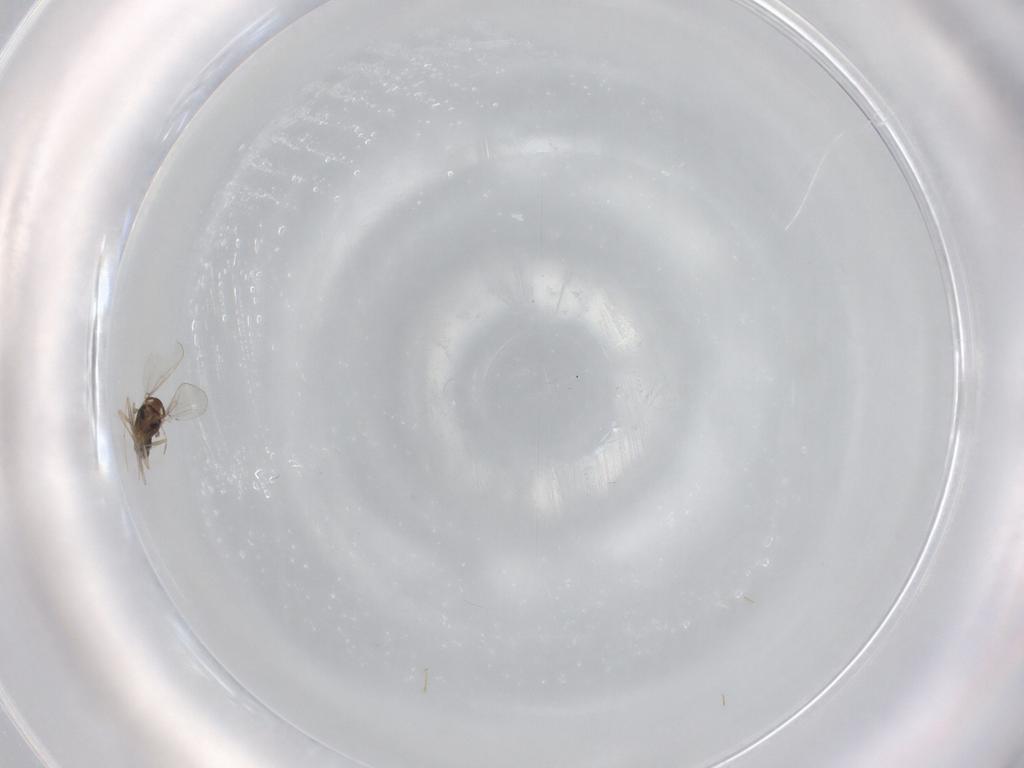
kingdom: Animalia
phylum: Arthropoda
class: Insecta
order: Diptera
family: Chironomidae
